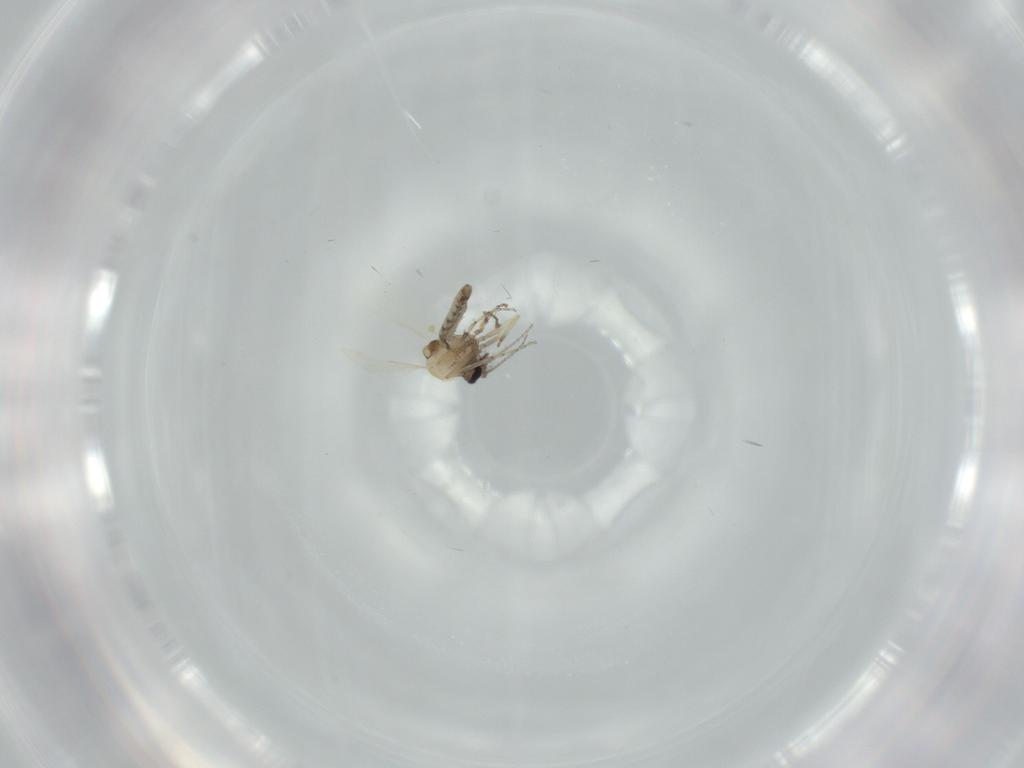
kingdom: Animalia
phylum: Arthropoda
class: Insecta
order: Diptera
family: Ceratopogonidae
